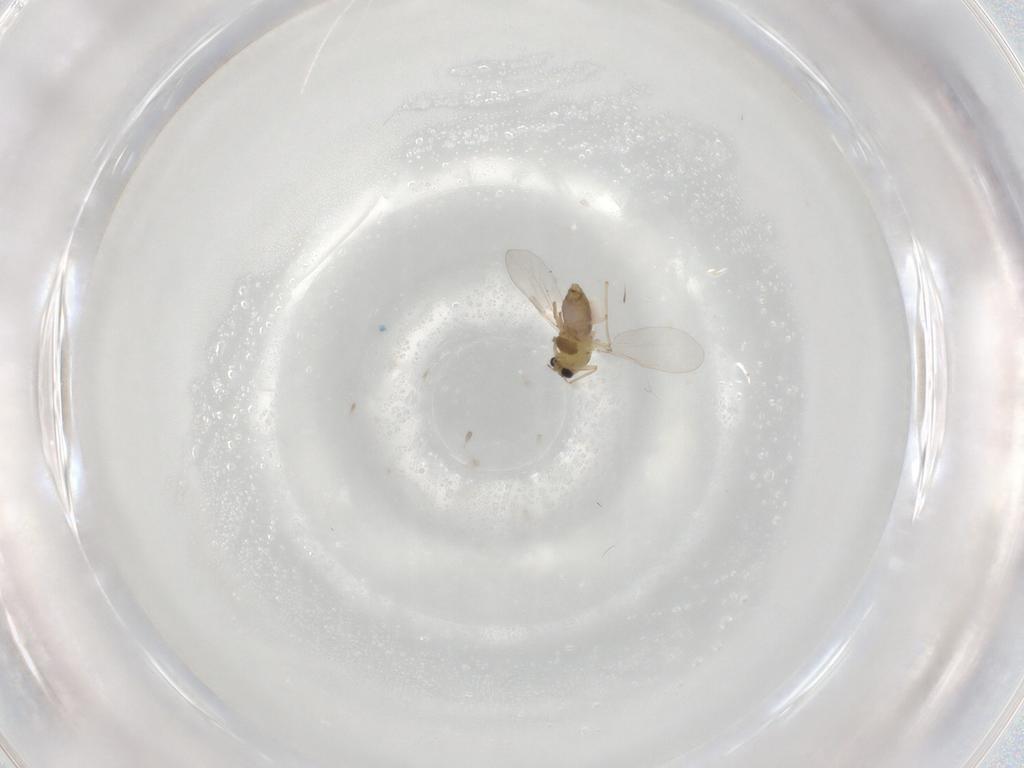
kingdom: Animalia
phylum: Arthropoda
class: Insecta
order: Diptera
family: Chironomidae
